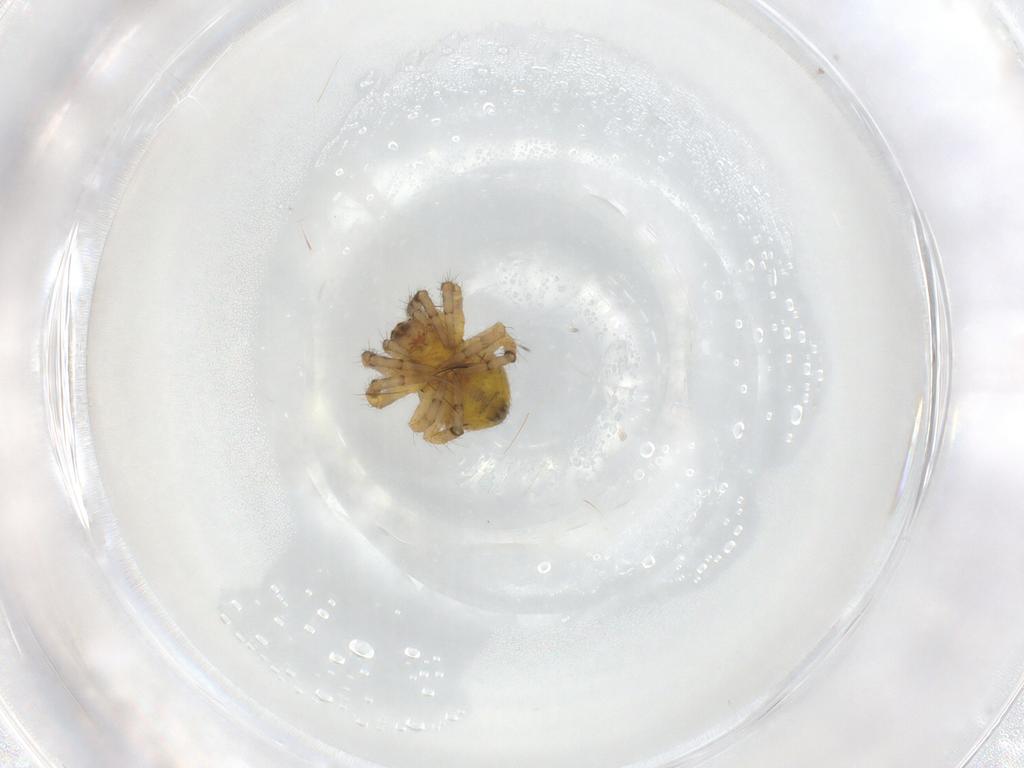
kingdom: Animalia
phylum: Arthropoda
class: Arachnida
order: Araneae
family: Araneidae
